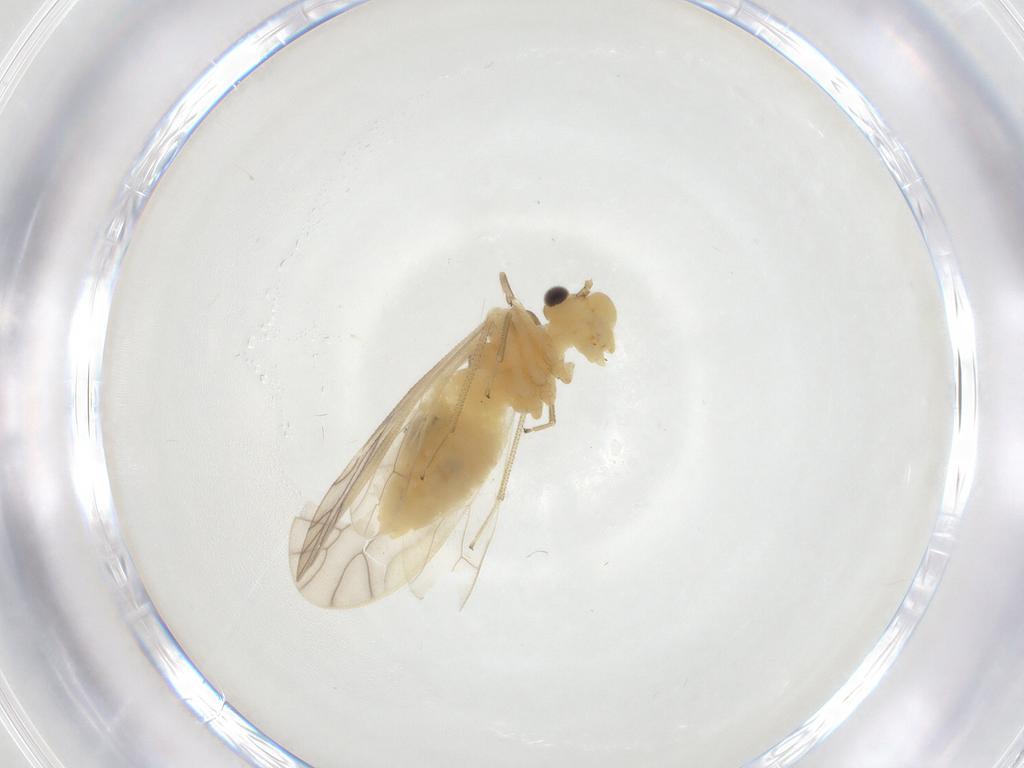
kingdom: Animalia
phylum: Arthropoda
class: Insecta
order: Psocodea
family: Caeciliusidae
